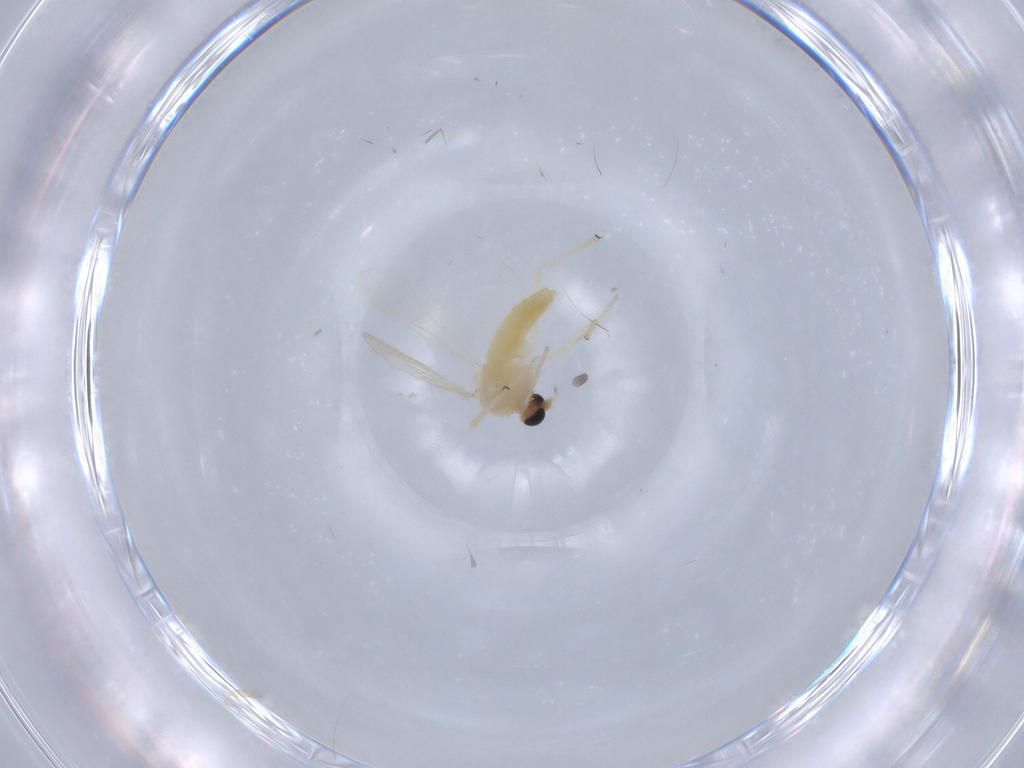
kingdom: Animalia
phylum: Arthropoda
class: Insecta
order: Diptera
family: Chironomidae
